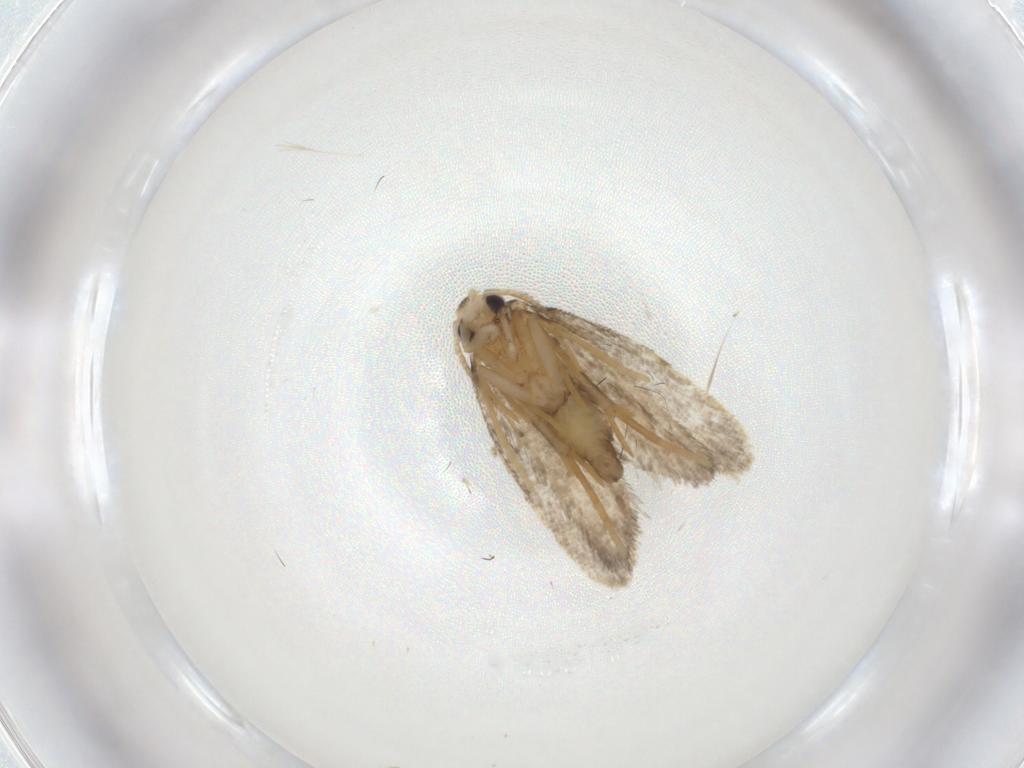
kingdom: Animalia
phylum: Arthropoda
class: Insecta
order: Lepidoptera
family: Psychidae
